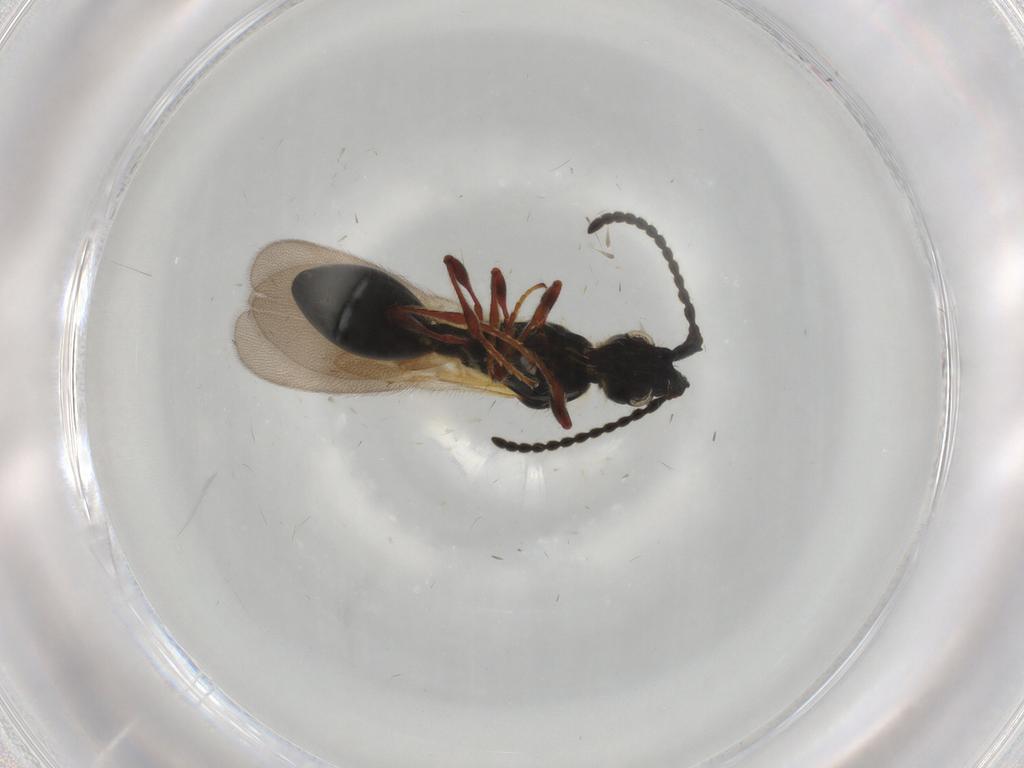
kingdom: Animalia
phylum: Arthropoda
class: Insecta
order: Hymenoptera
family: Diapriidae
